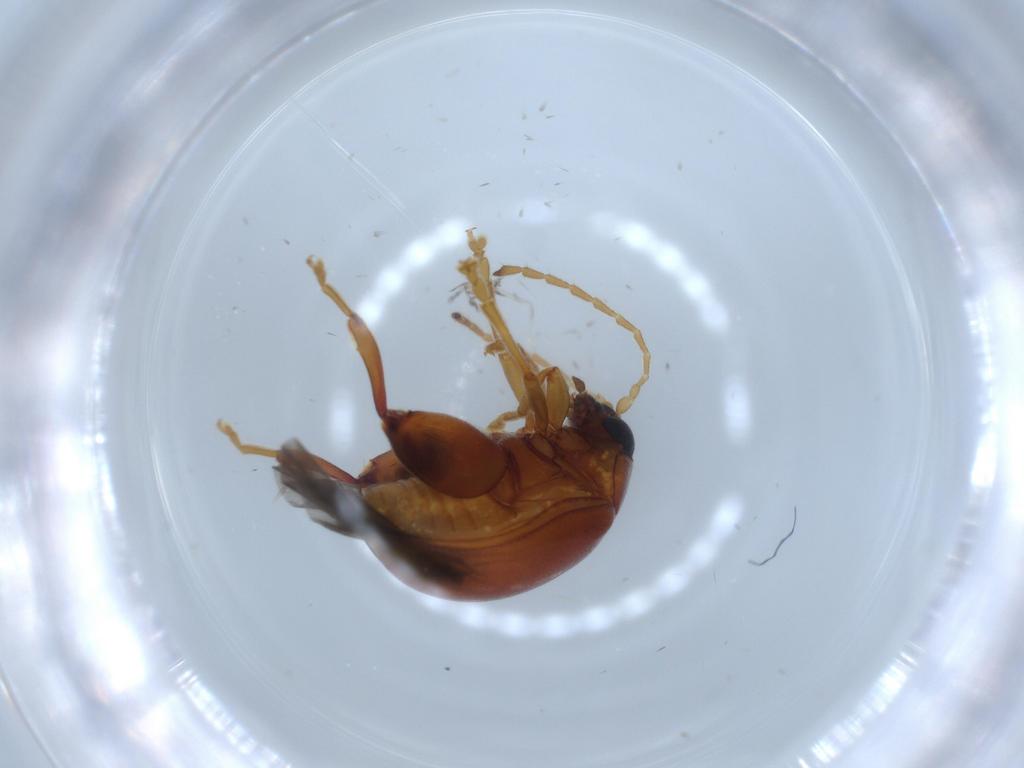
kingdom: Animalia
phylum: Arthropoda
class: Insecta
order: Coleoptera
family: Chrysomelidae
